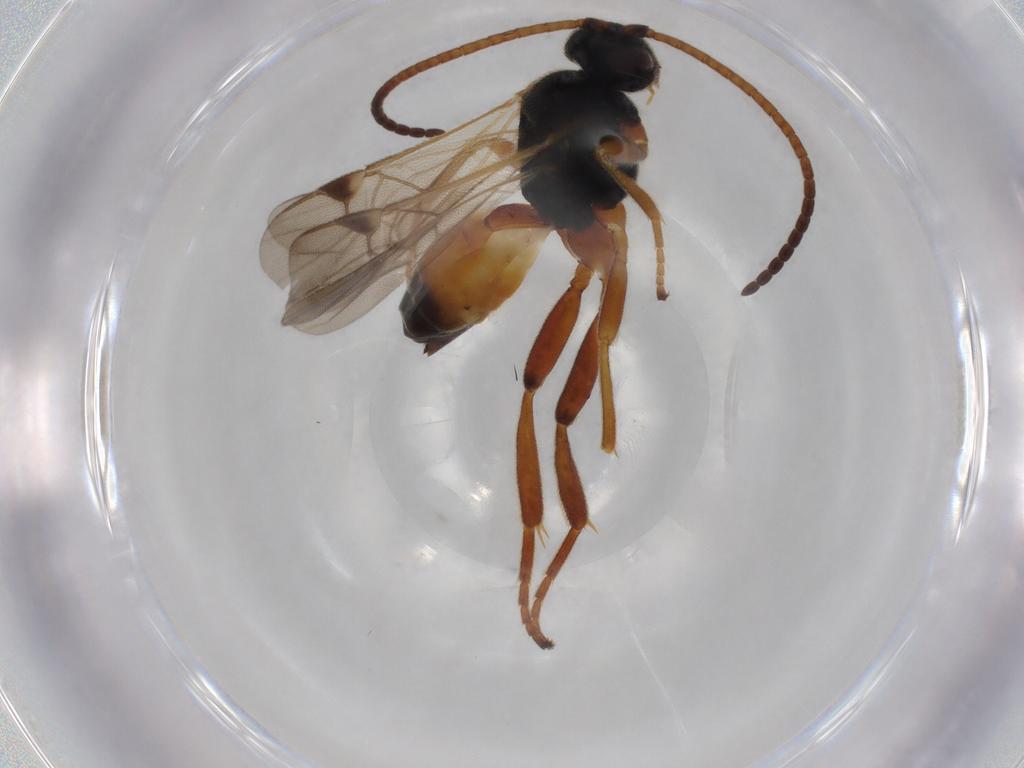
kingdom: Animalia
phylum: Arthropoda
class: Insecta
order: Hymenoptera
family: Braconidae
